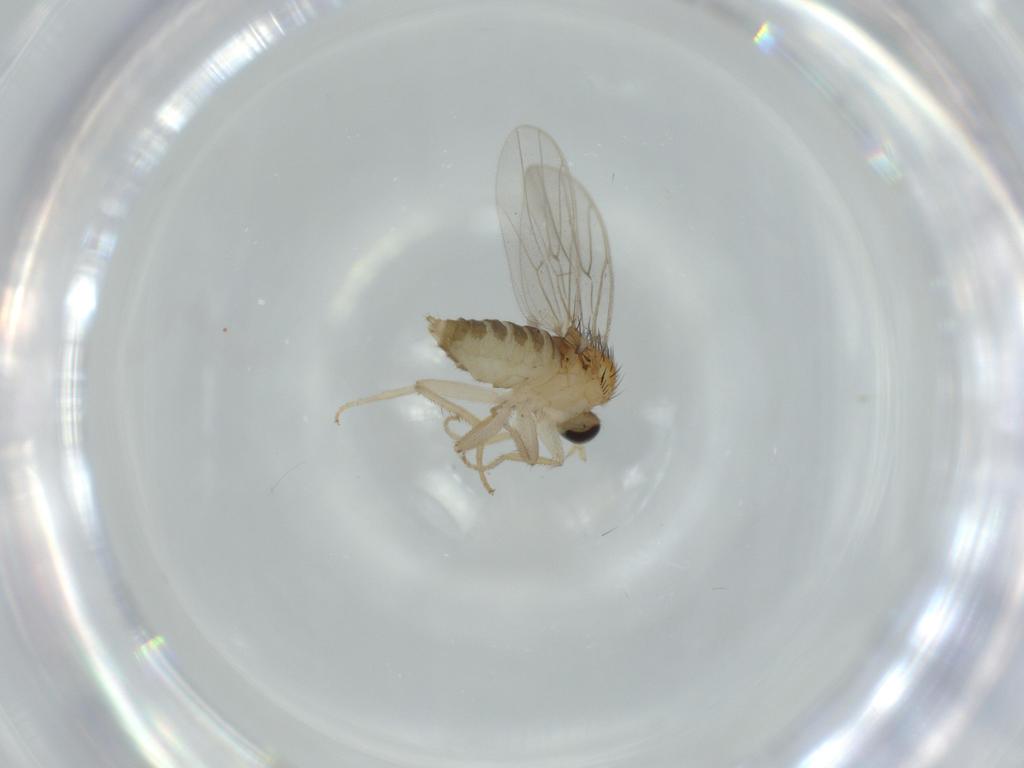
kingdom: Animalia
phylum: Arthropoda
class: Insecta
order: Diptera
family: Hybotidae
